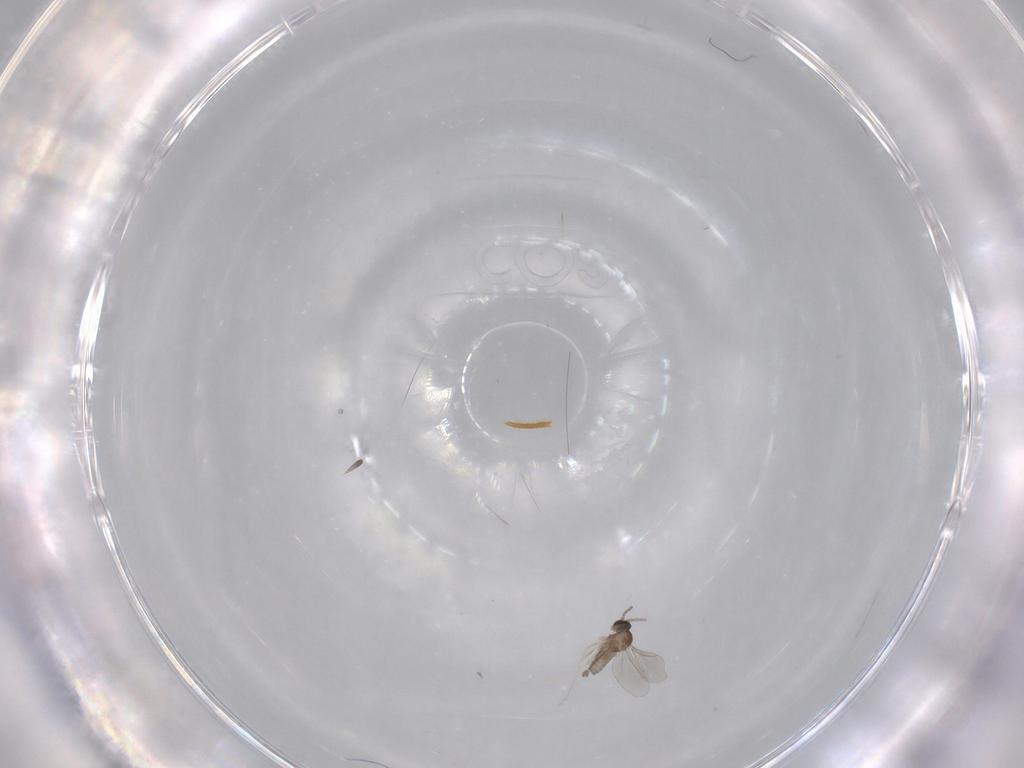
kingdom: Animalia
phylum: Arthropoda
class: Insecta
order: Diptera
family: Cecidomyiidae
